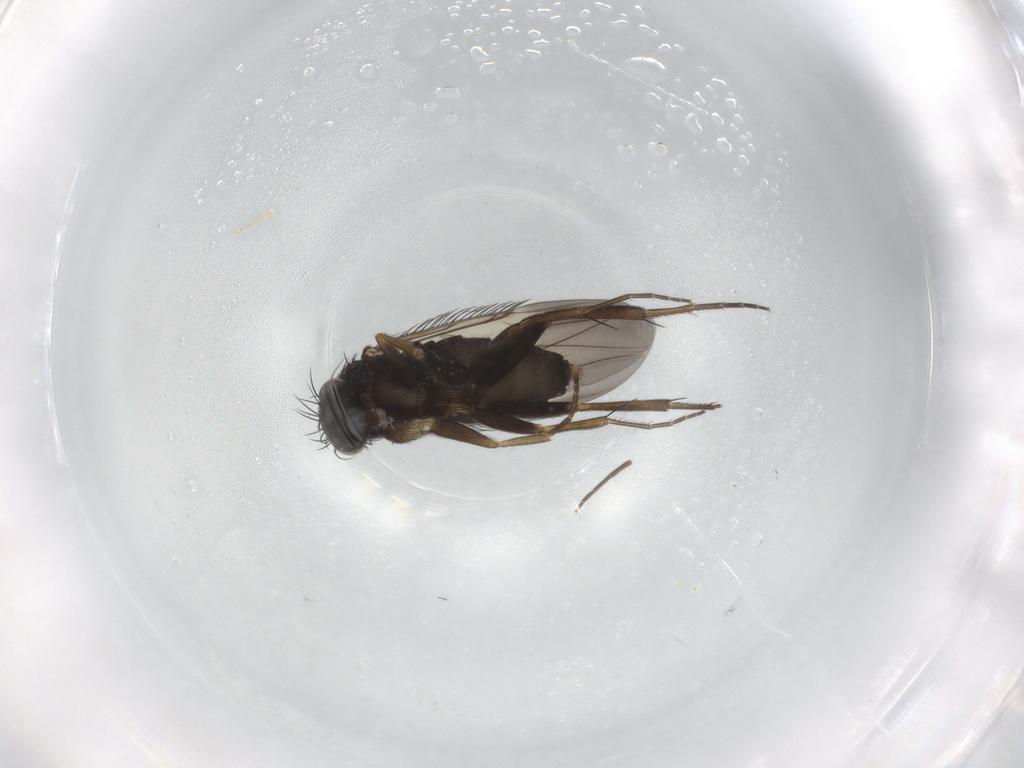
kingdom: Animalia
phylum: Arthropoda
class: Insecta
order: Diptera
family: Phoridae
